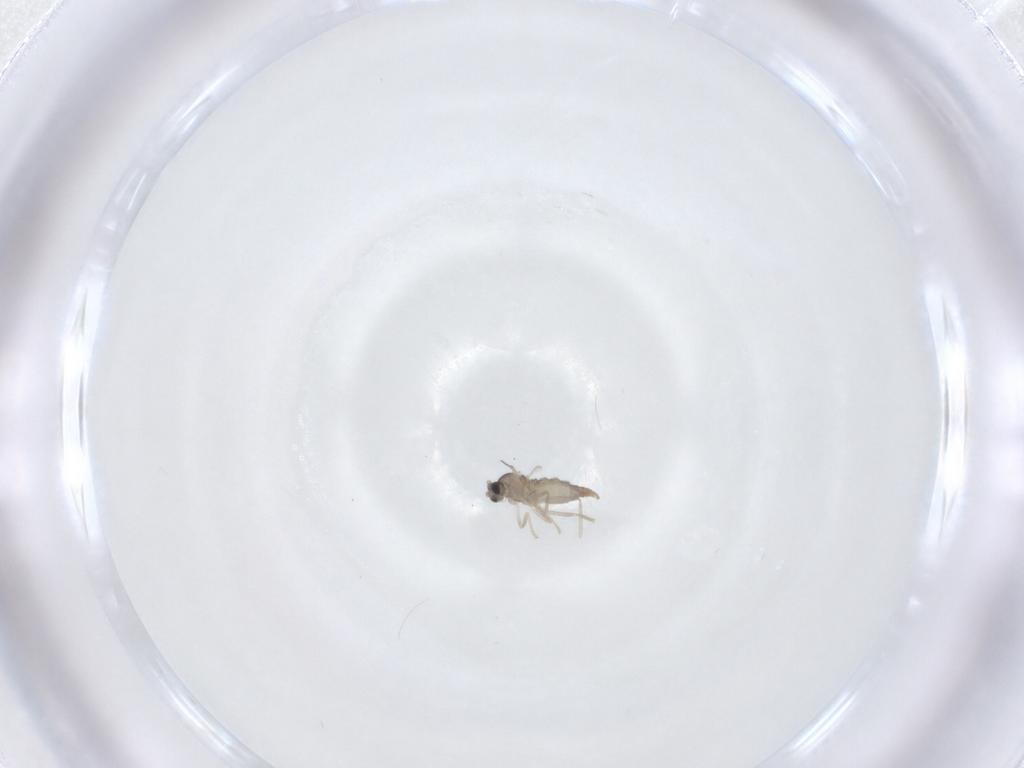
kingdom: Animalia
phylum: Arthropoda
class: Insecta
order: Diptera
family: Cecidomyiidae
